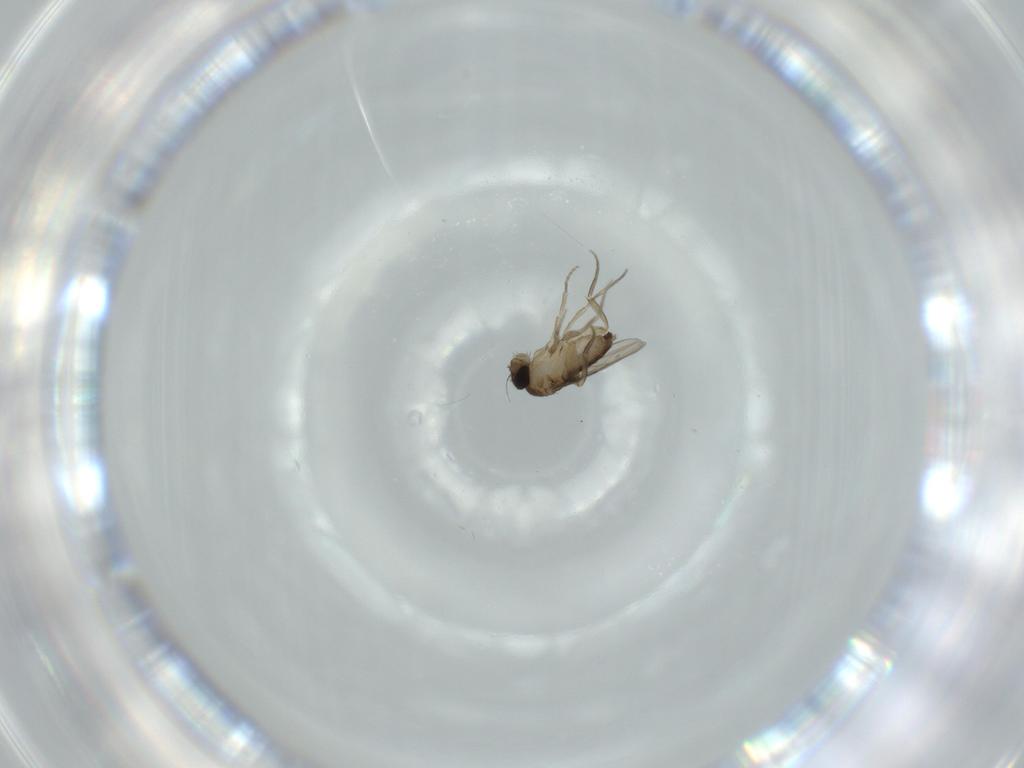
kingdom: Animalia
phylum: Arthropoda
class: Insecta
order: Diptera
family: Phoridae
